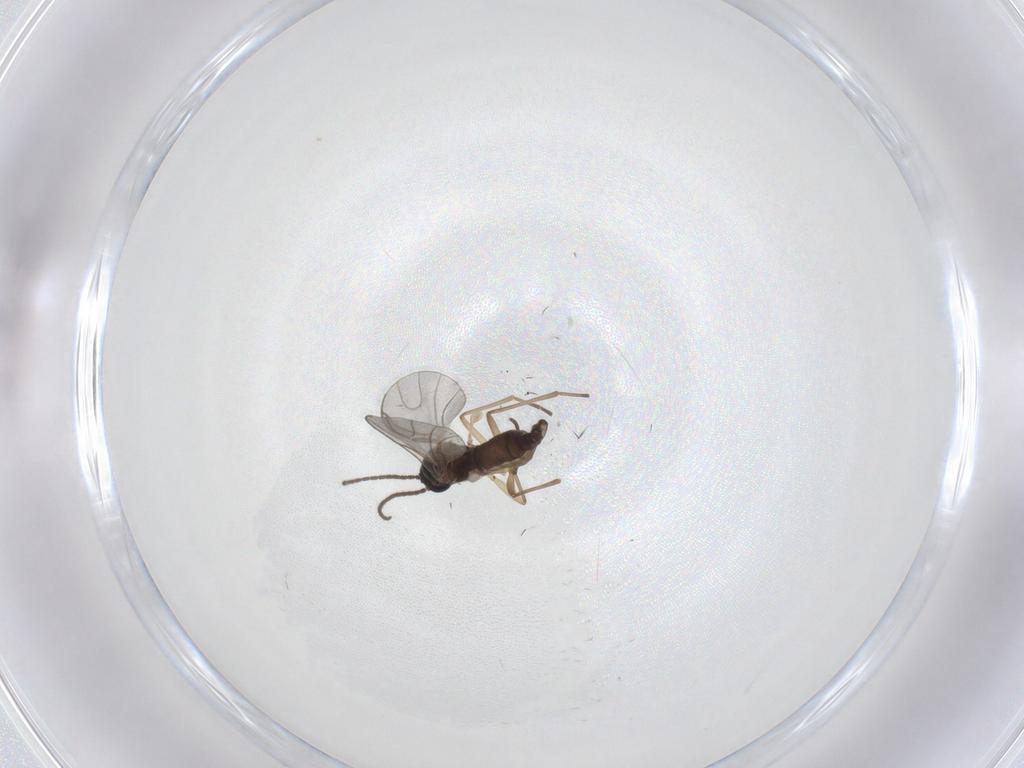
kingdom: Animalia
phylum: Arthropoda
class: Insecta
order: Diptera
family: Sciaridae
